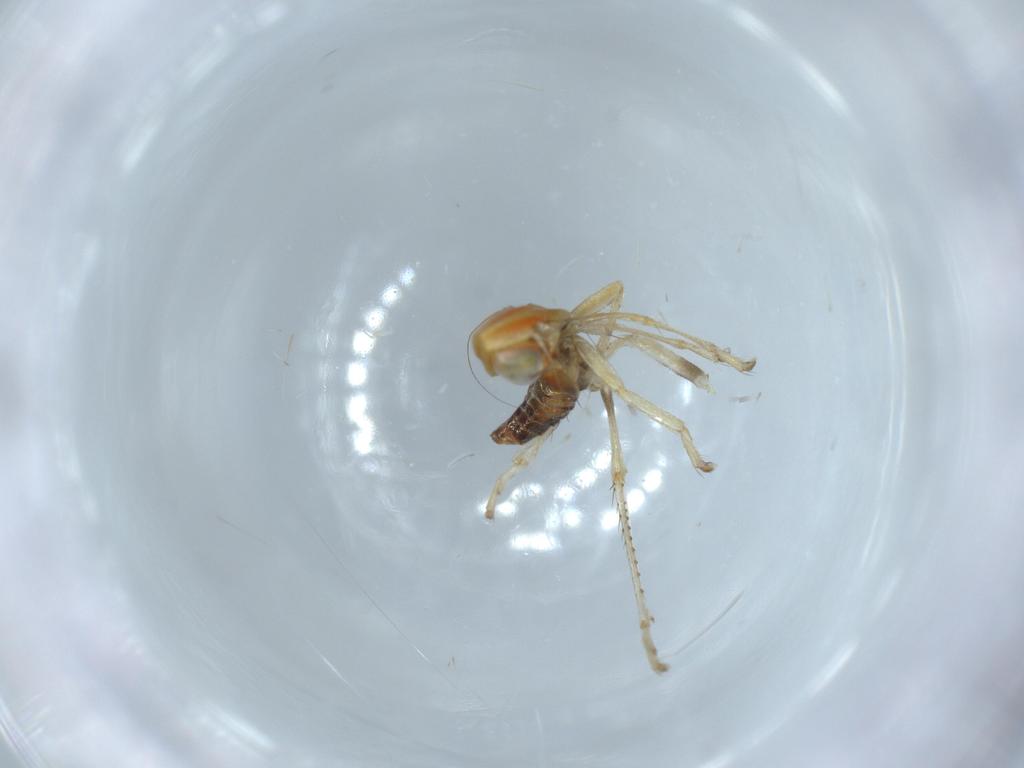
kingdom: Animalia
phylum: Arthropoda
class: Insecta
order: Hemiptera
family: Cicadellidae
